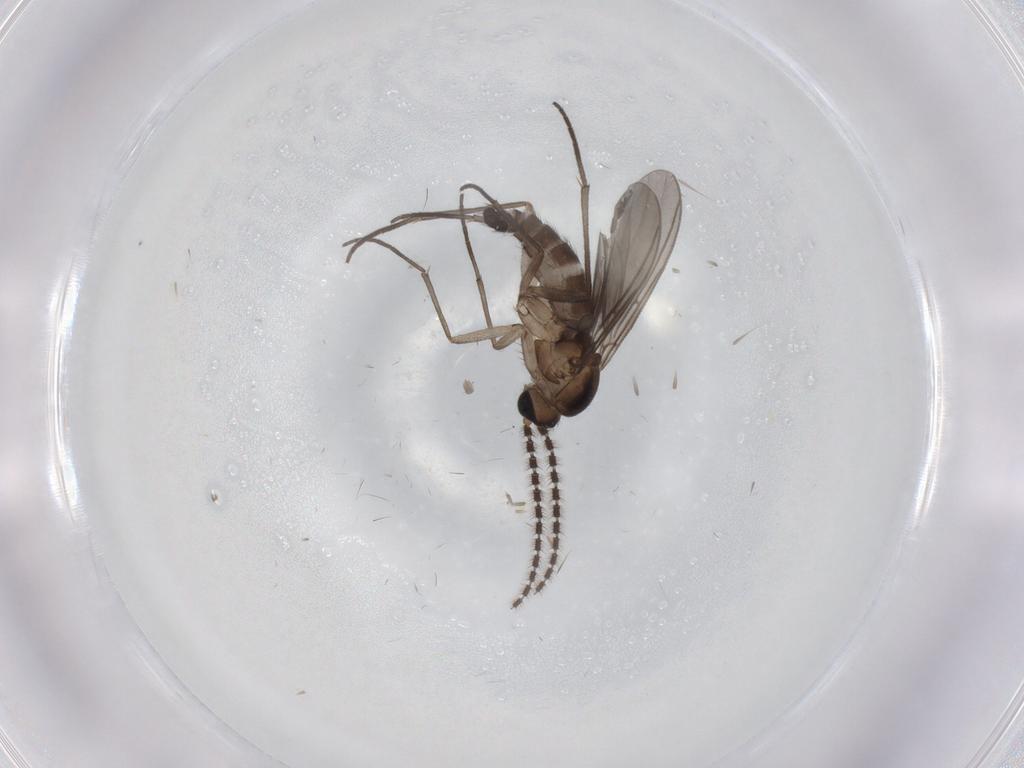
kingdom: Animalia
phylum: Arthropoda
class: Insecta
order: Diptera
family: Sciaridae
